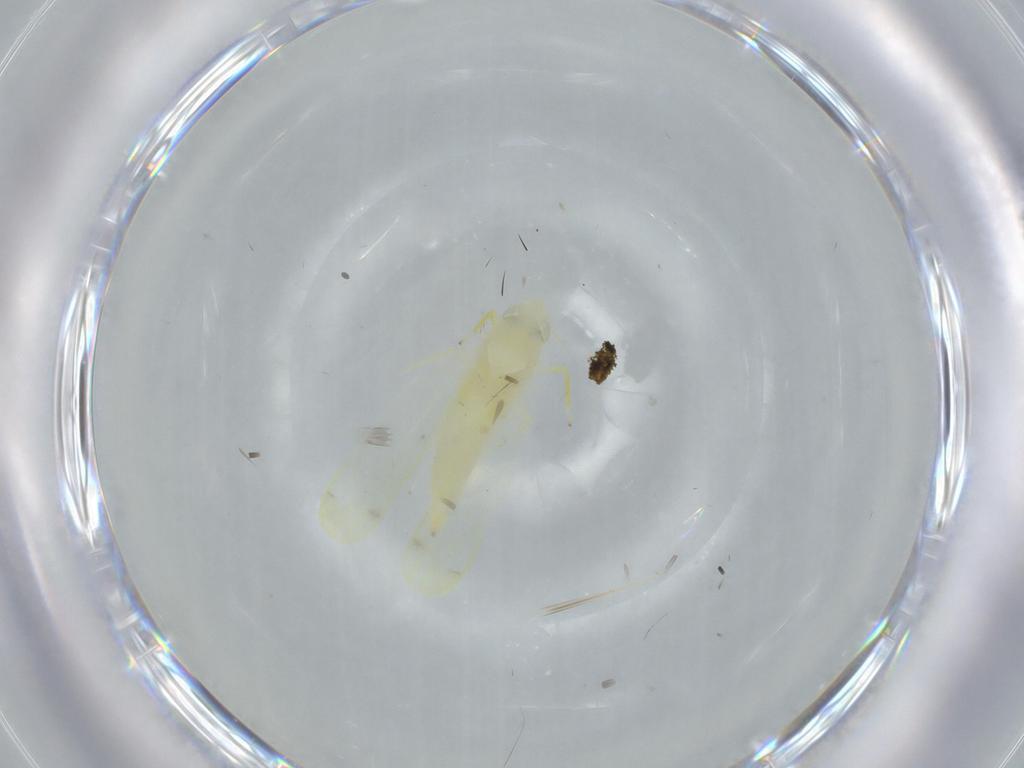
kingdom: Animalia
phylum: Arthropoda
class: Insecta
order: Hemiptera
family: Cicadellidae
